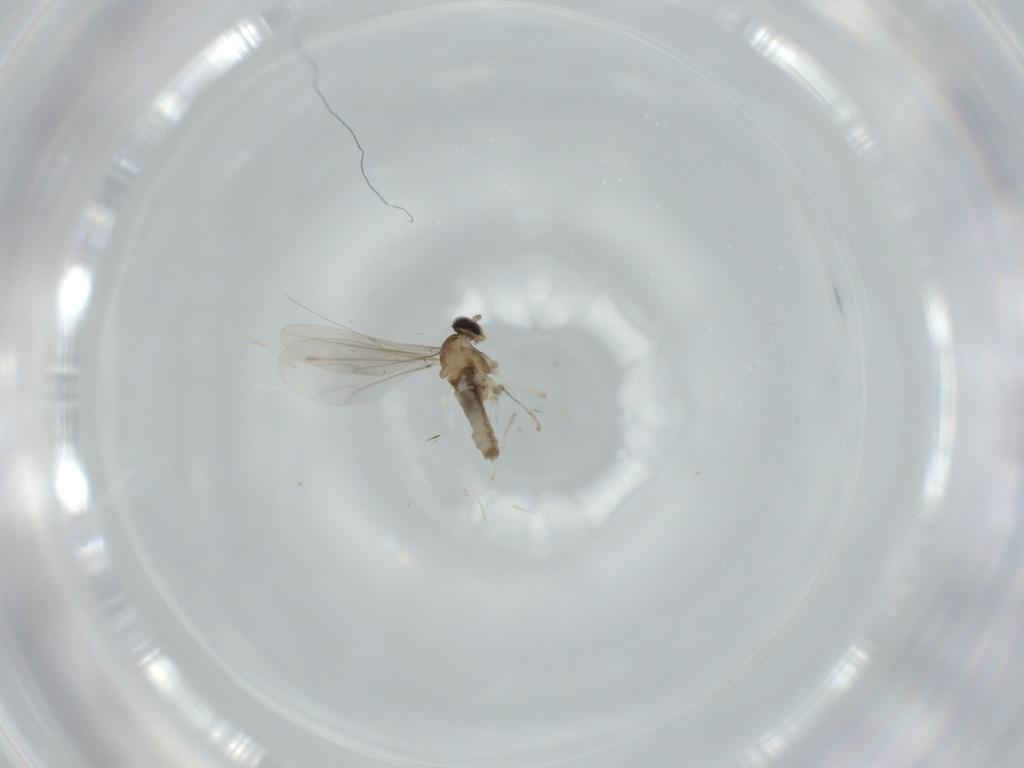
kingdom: Animalia
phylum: Arthropoda
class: Insecta
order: Diptera
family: Cecidomyiidae
